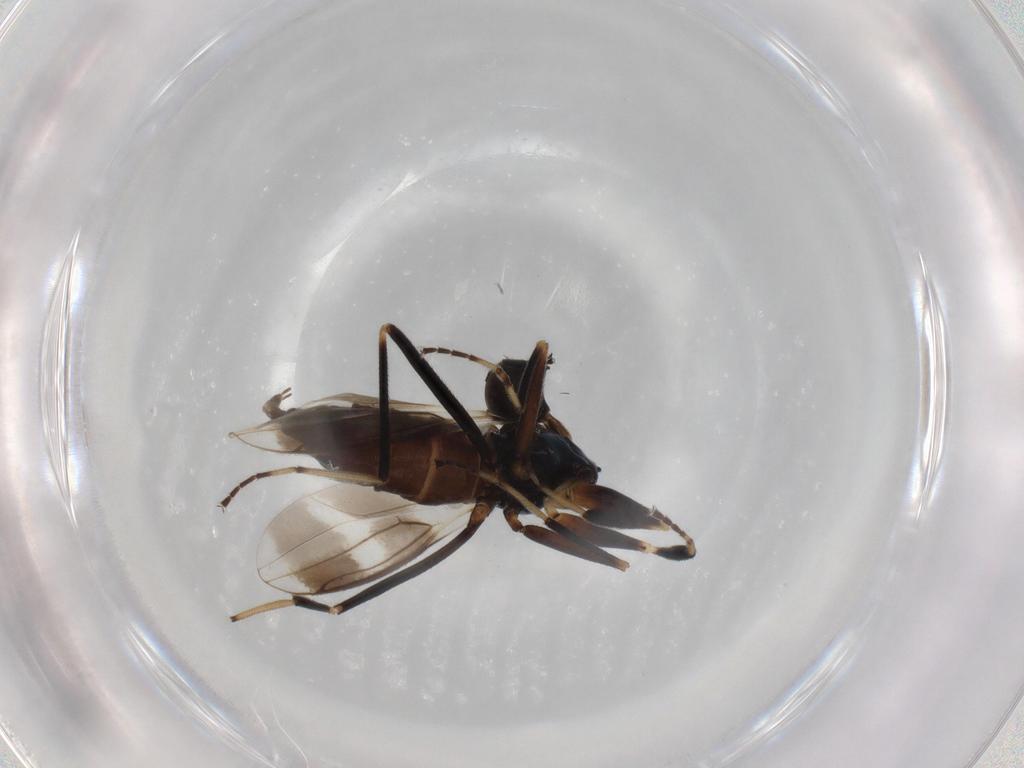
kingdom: Animalia
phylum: Arthropoda
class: Insecta
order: Diptera
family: Hybotidae
